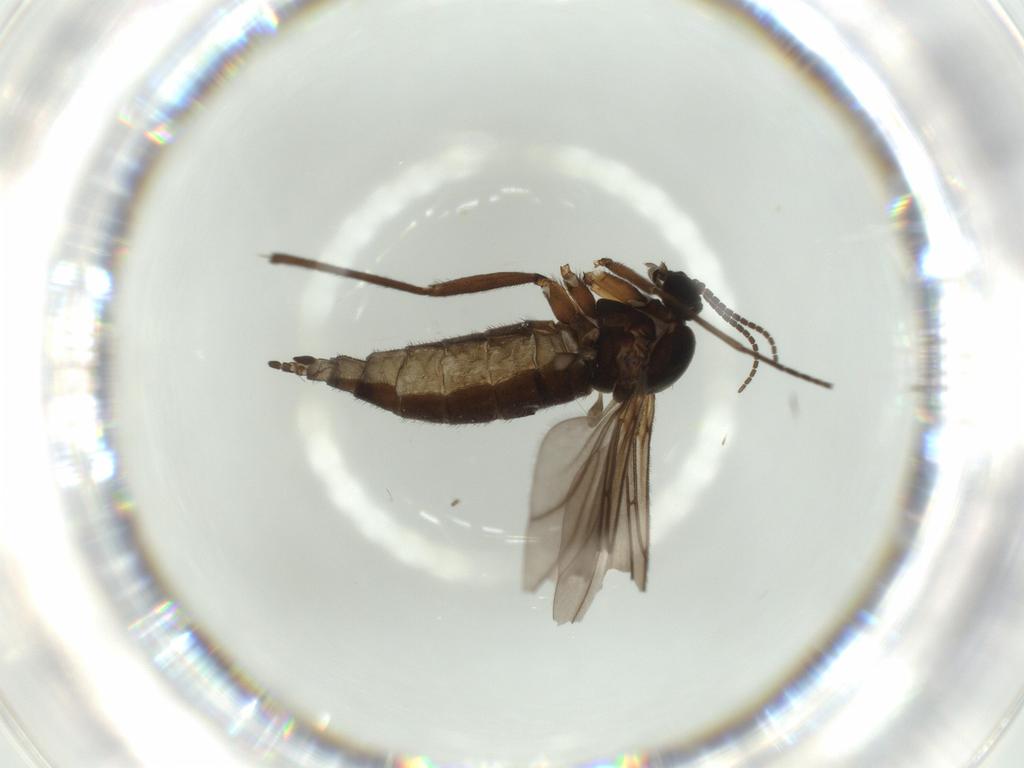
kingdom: Animalia
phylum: Arthropoda
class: Insecta
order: Diptera
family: Sciaridae
